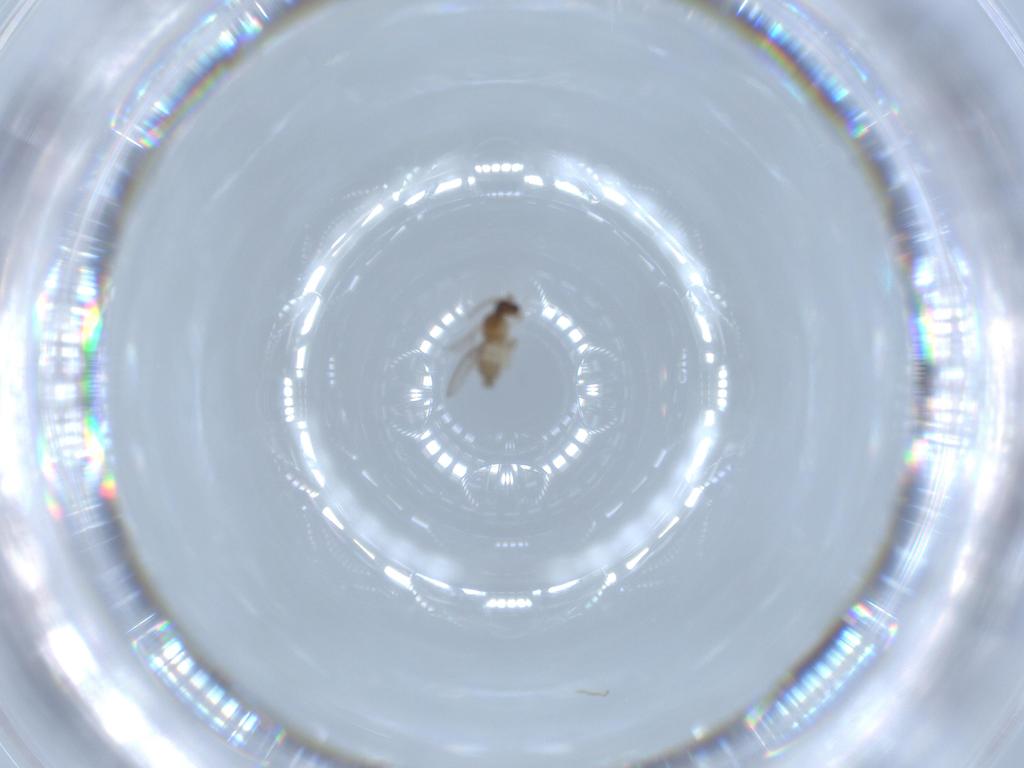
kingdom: Animalia
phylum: Arthropoda
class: Insecta
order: Diptera
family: Cecidomyiidae
